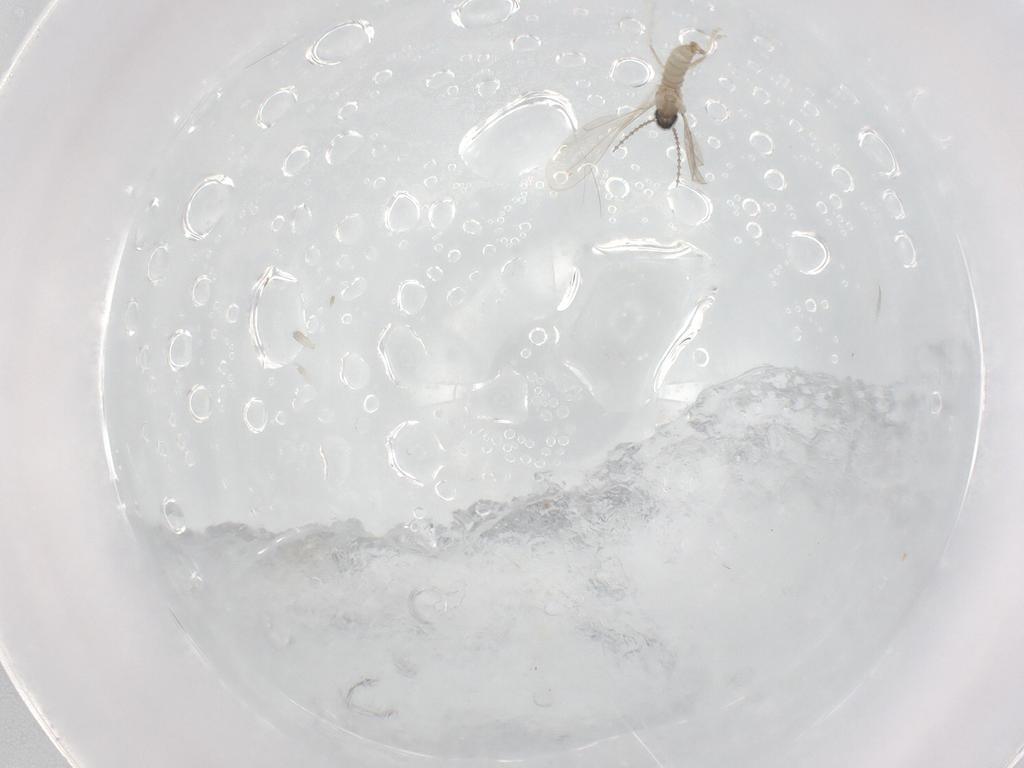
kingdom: Animalia
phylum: Arthropoda
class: Insecta
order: Diptera
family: Cecidomyiidae
